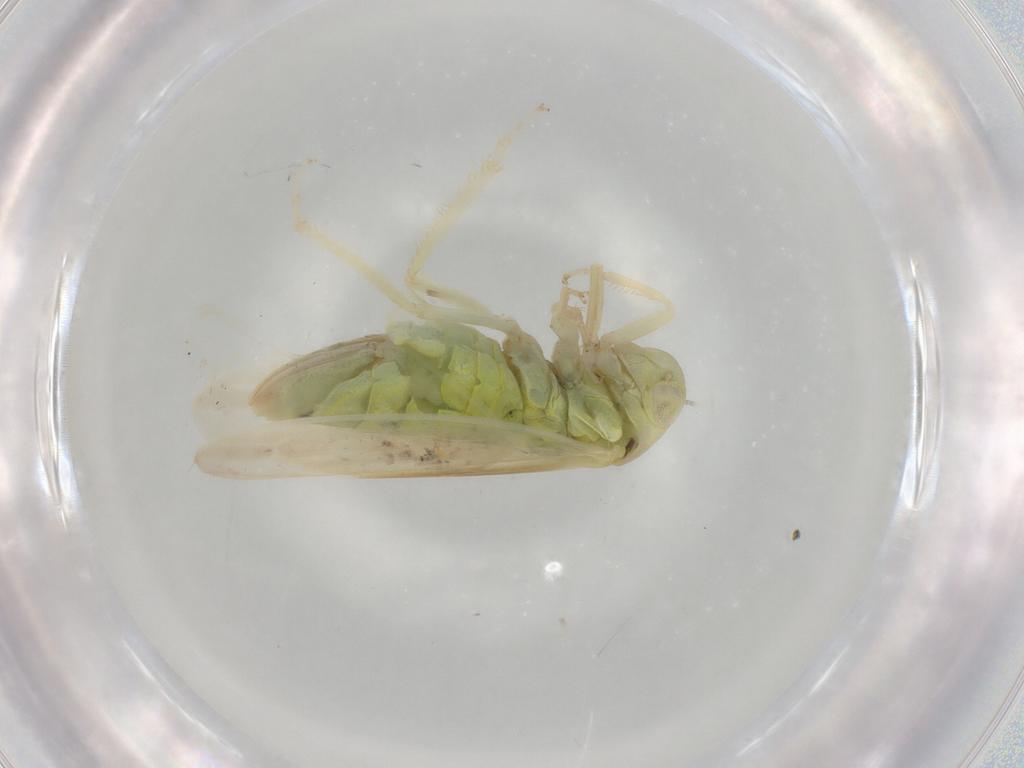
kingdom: Animalia
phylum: Arthropoda
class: Insecta
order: Hemiptera
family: Cicadellidae
